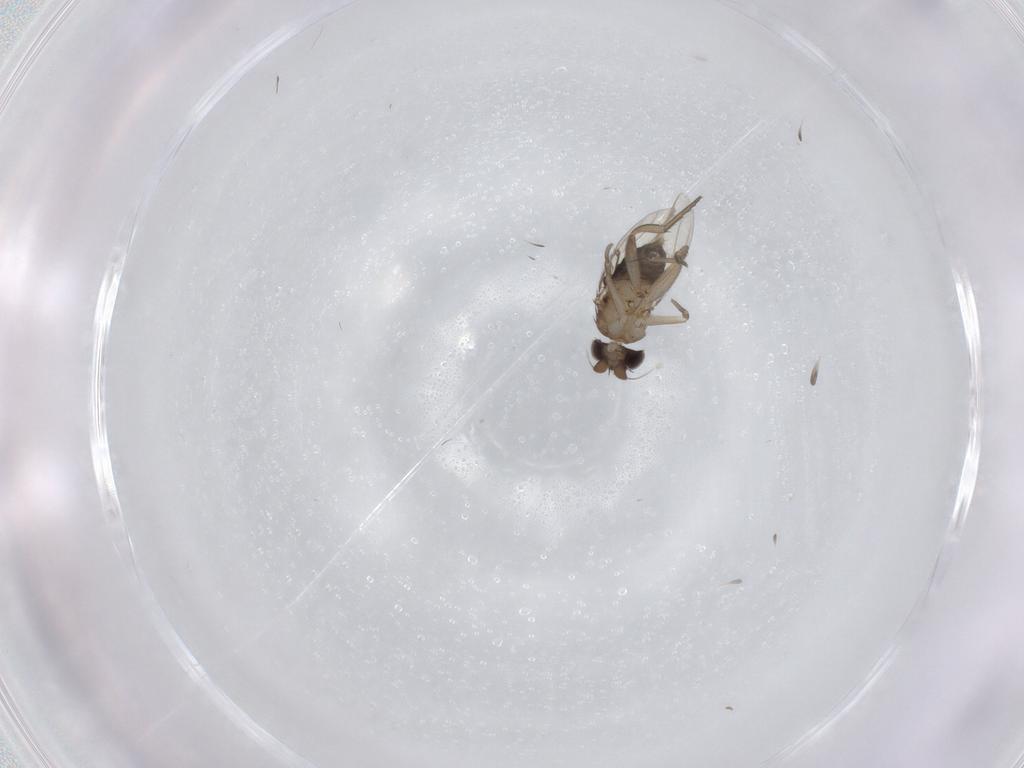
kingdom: Animalia
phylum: Arthropoda
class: Insecta
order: Diptera
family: Phoridae
